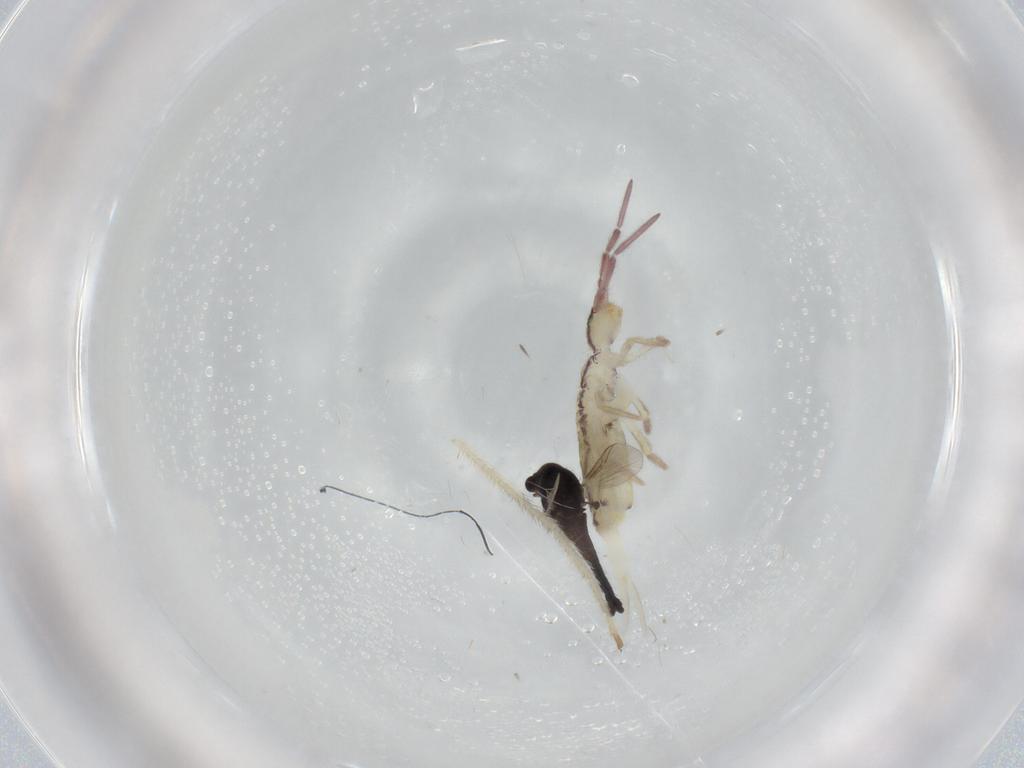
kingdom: Animalia
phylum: Arthropoda
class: Insecta
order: Diptera
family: Chironomidae
